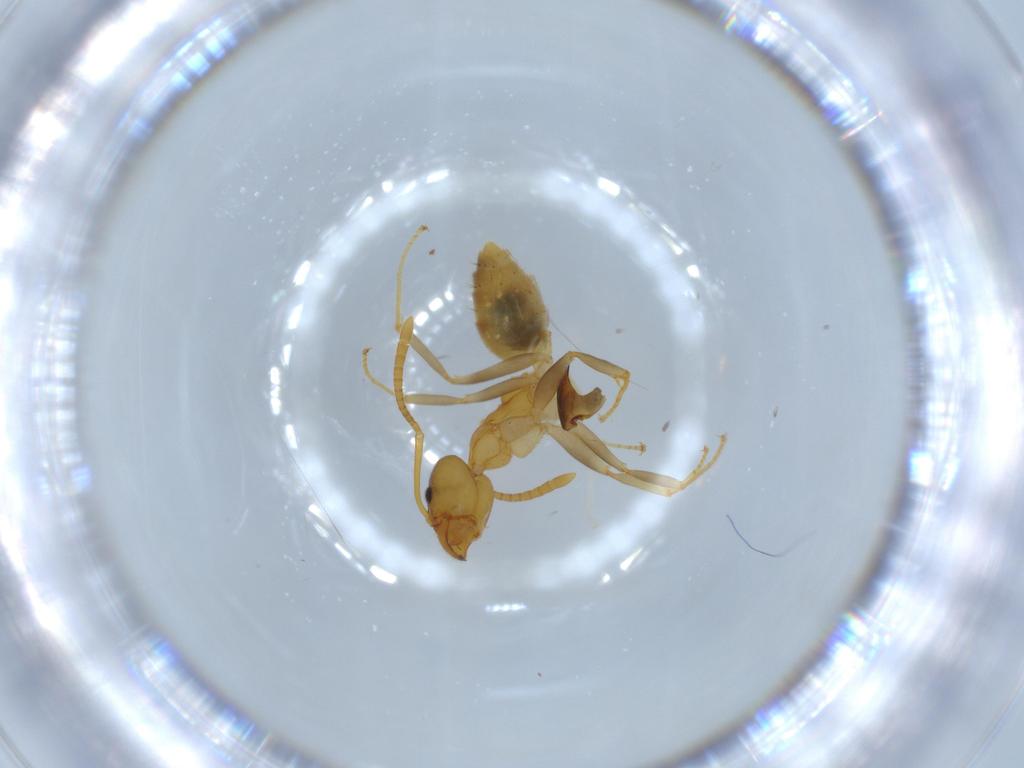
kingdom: Animalia
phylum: Arthropoda
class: Insecta
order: Hymenoptera
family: Formicidae
